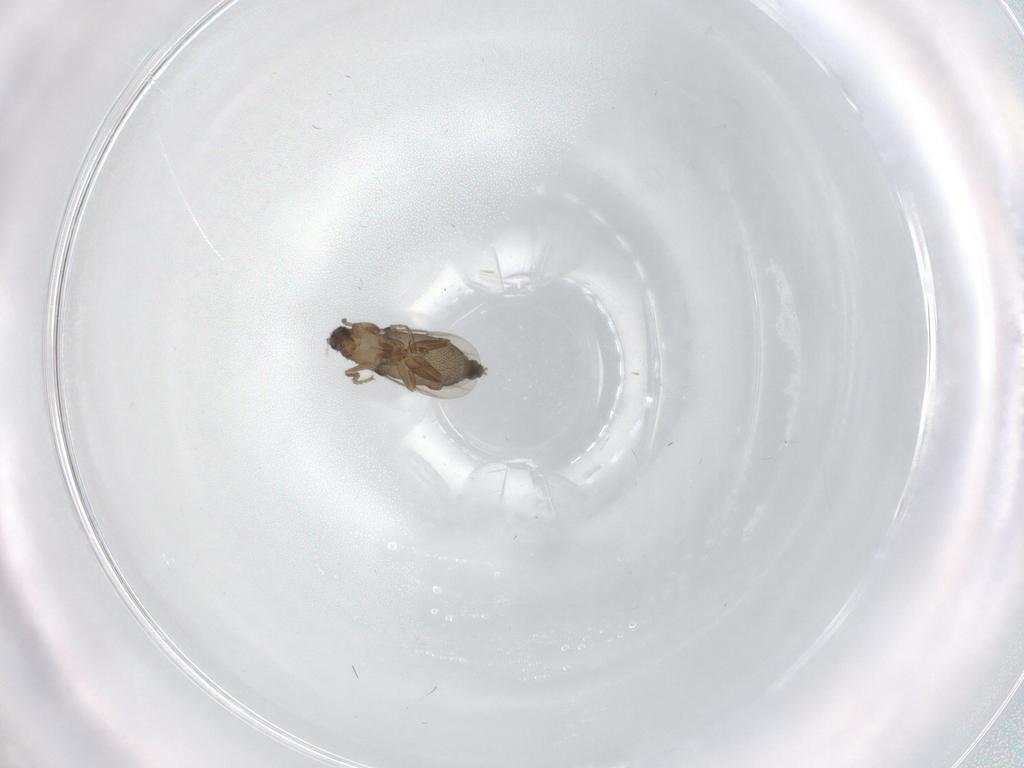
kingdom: Animalia
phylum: Arthropoda
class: Insecta
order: Diptera
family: Phoridae
